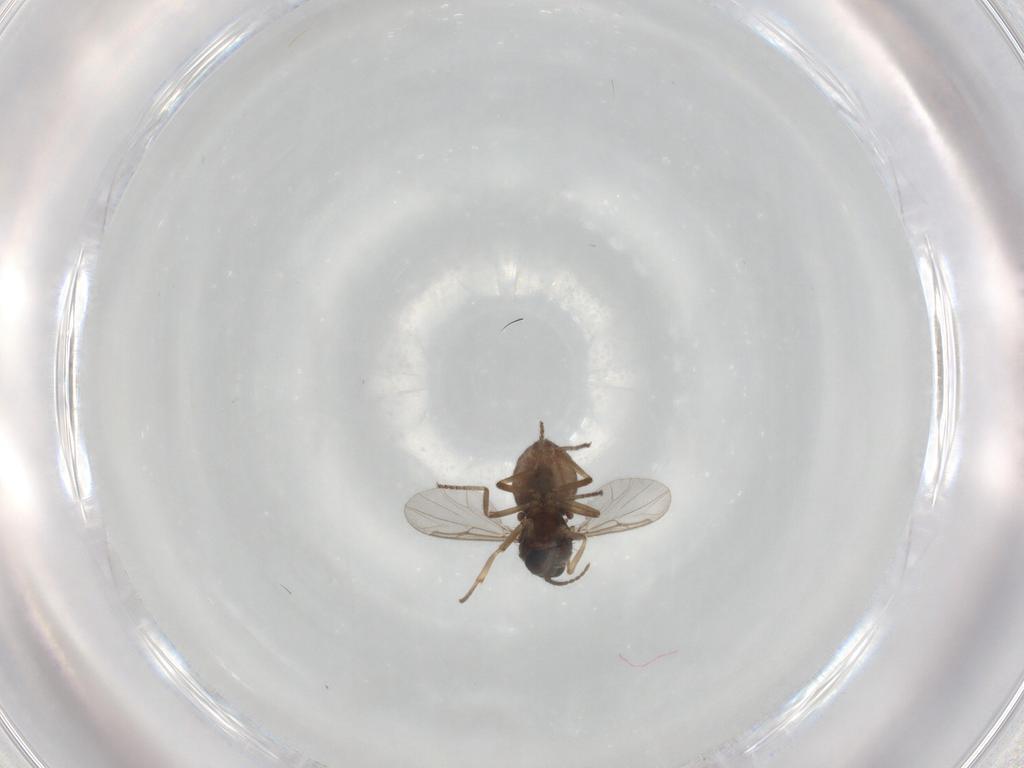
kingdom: Animalia
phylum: Arthropoda
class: Insecta
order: Diptera
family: Ceratopogonidae
